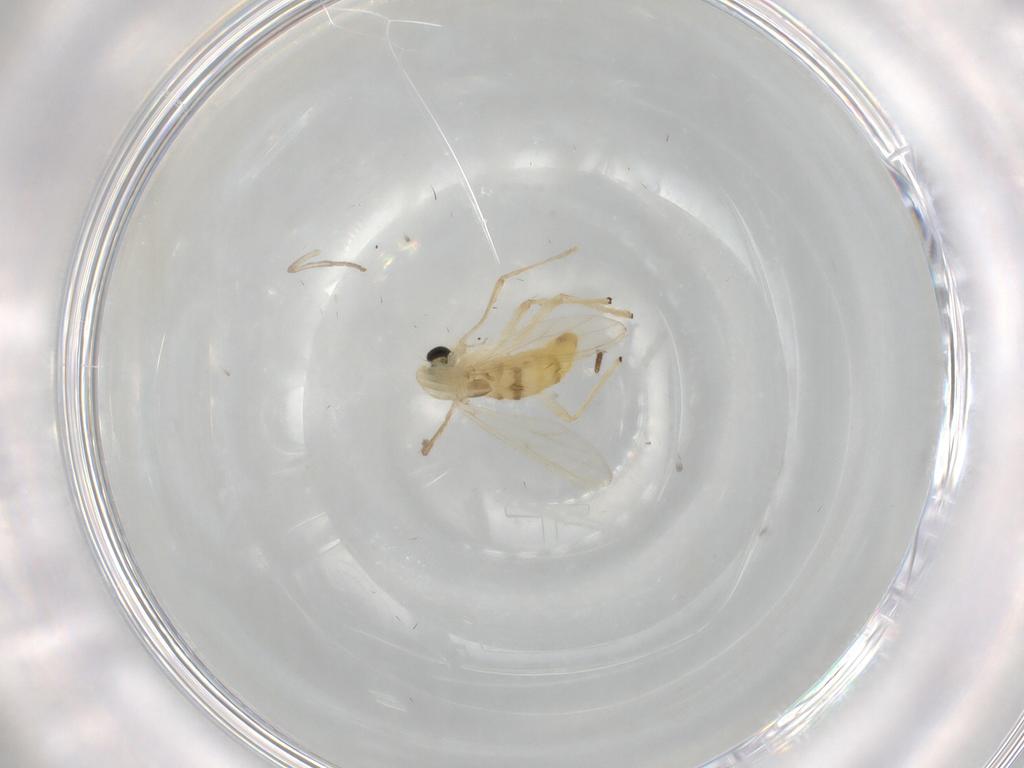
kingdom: Animalia
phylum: Arthropoda
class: Insecta
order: Diptera
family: Chironomidae
